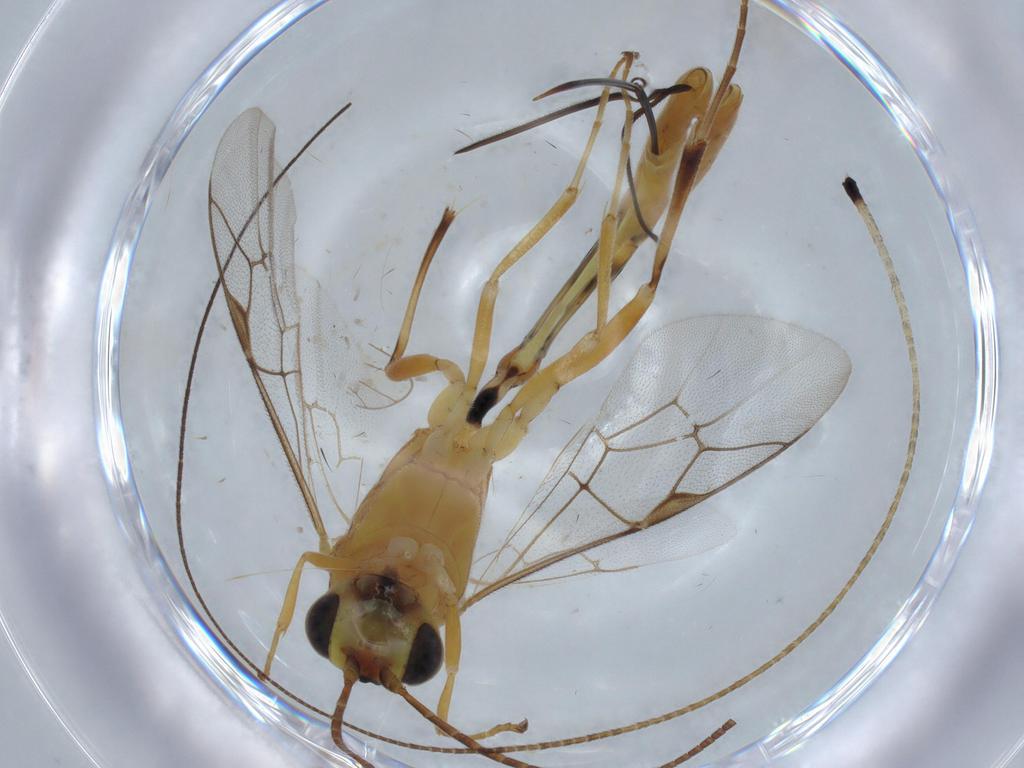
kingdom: Animalia
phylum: Arthropoda
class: Insecta
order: Hymenoptera
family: Ichneumonidae
